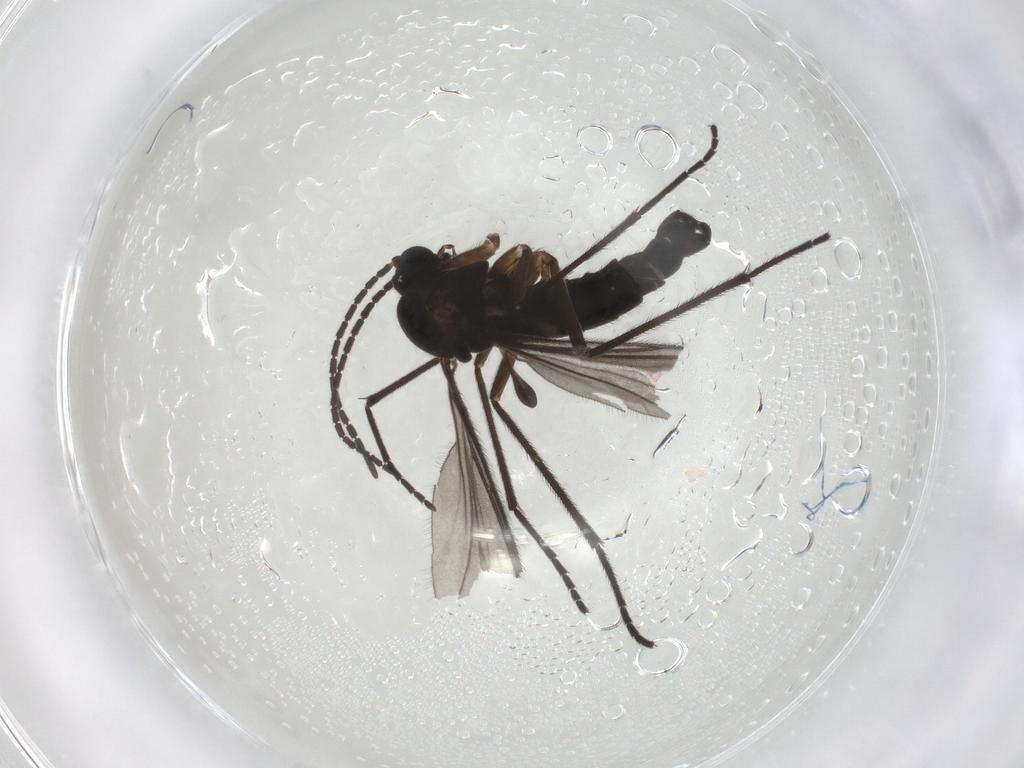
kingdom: Animalia
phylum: Arthropoda
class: Insecta
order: Diptera
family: Sciaridae
